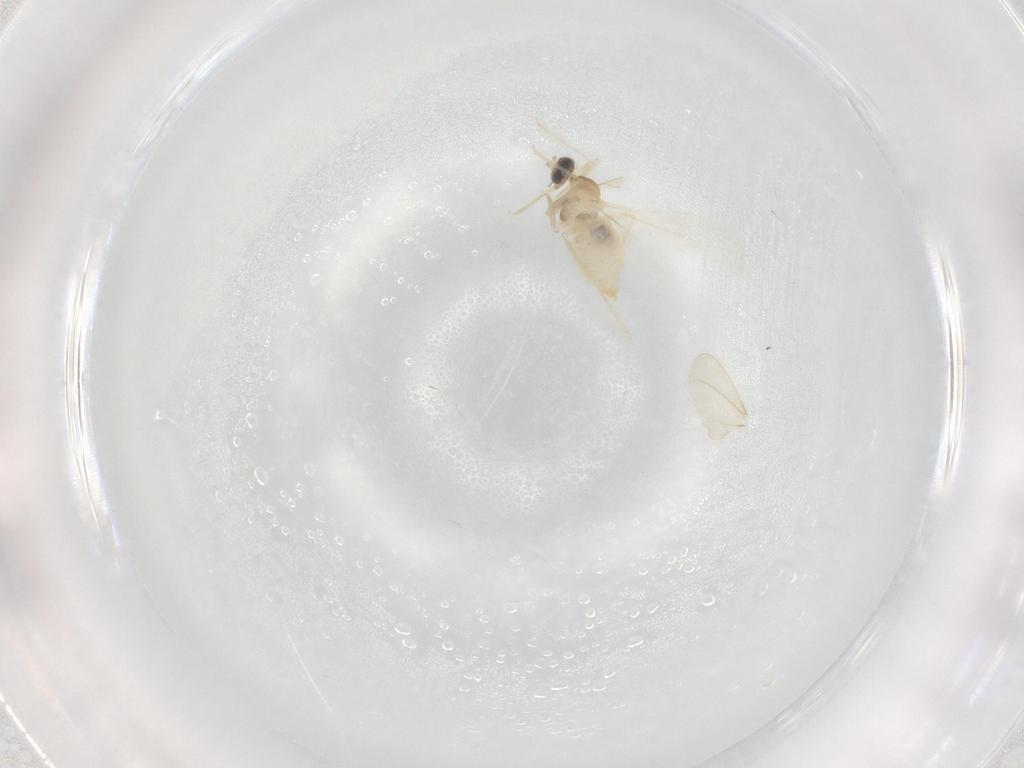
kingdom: Animalia
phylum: Arthropoda
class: Insecta
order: Diptera
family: Cecidomyiidae
